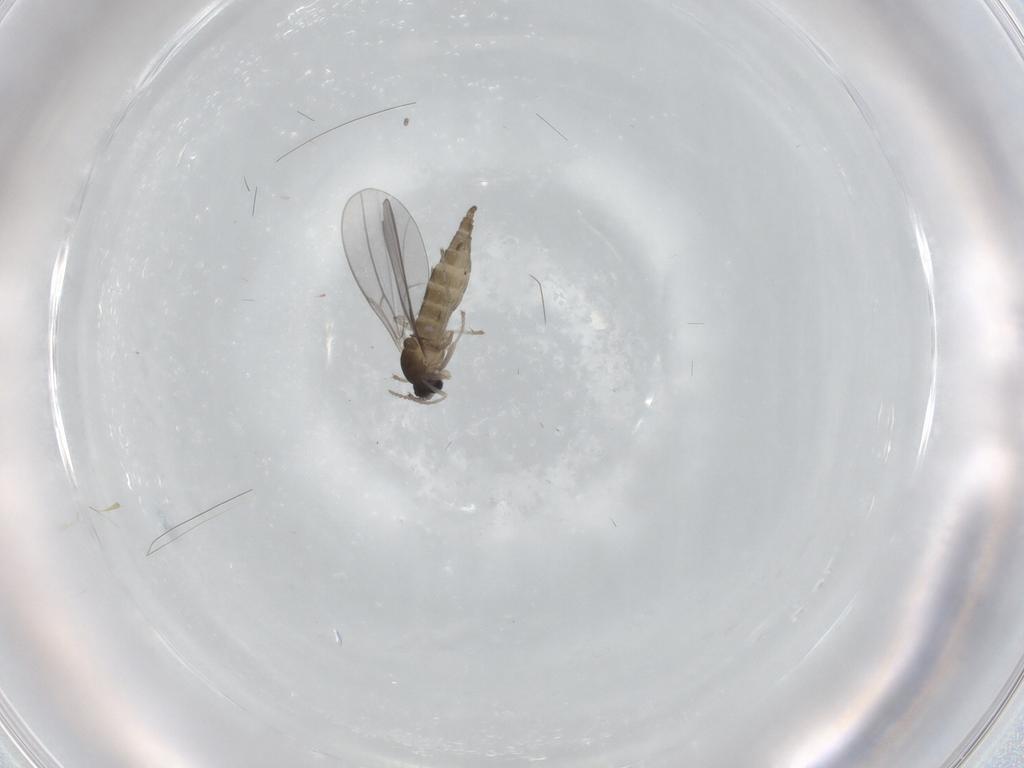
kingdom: Animalia
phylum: Arthropoda
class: Insecta
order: Diptera
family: Cecidomyiidae
